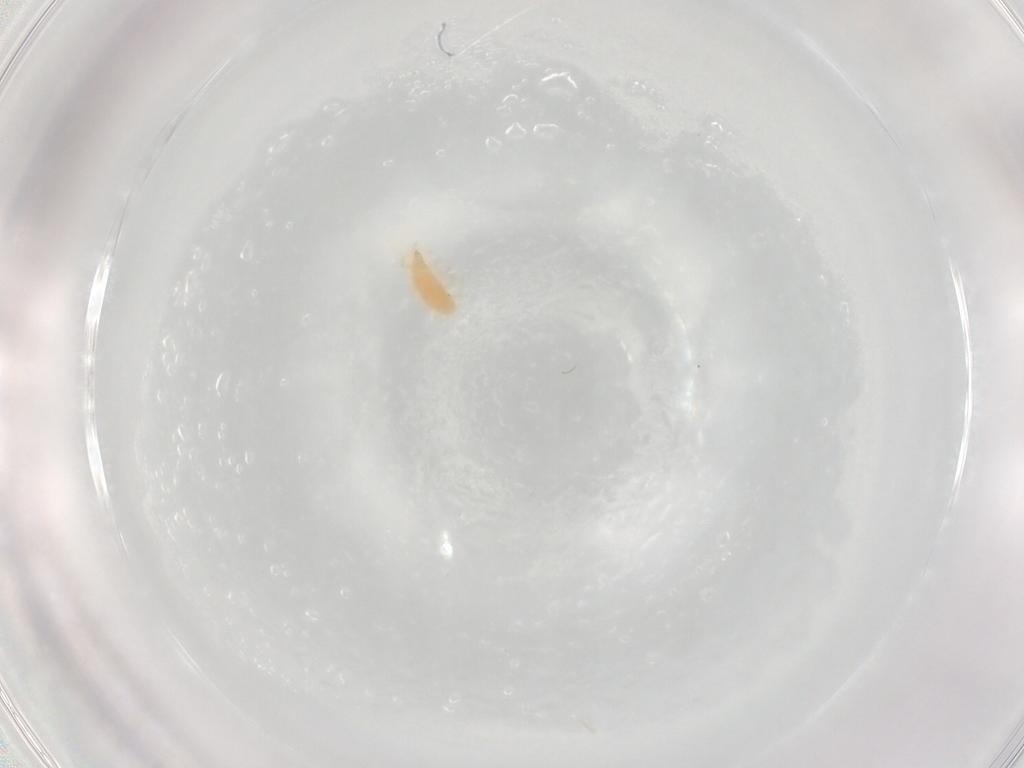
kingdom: Animalia
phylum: Arthropoda
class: Arachnida
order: Trombidiformes
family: Bdellidae
